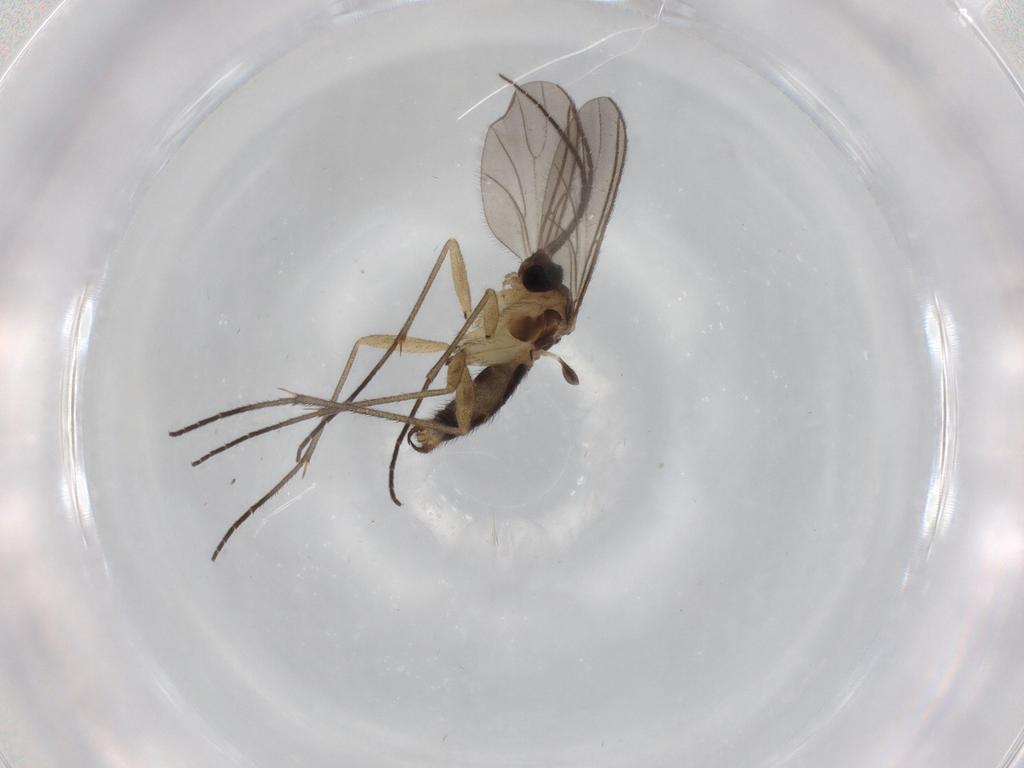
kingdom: Animalia
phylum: Arthropoda
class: Insecta
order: Diptera
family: Sciaridae
